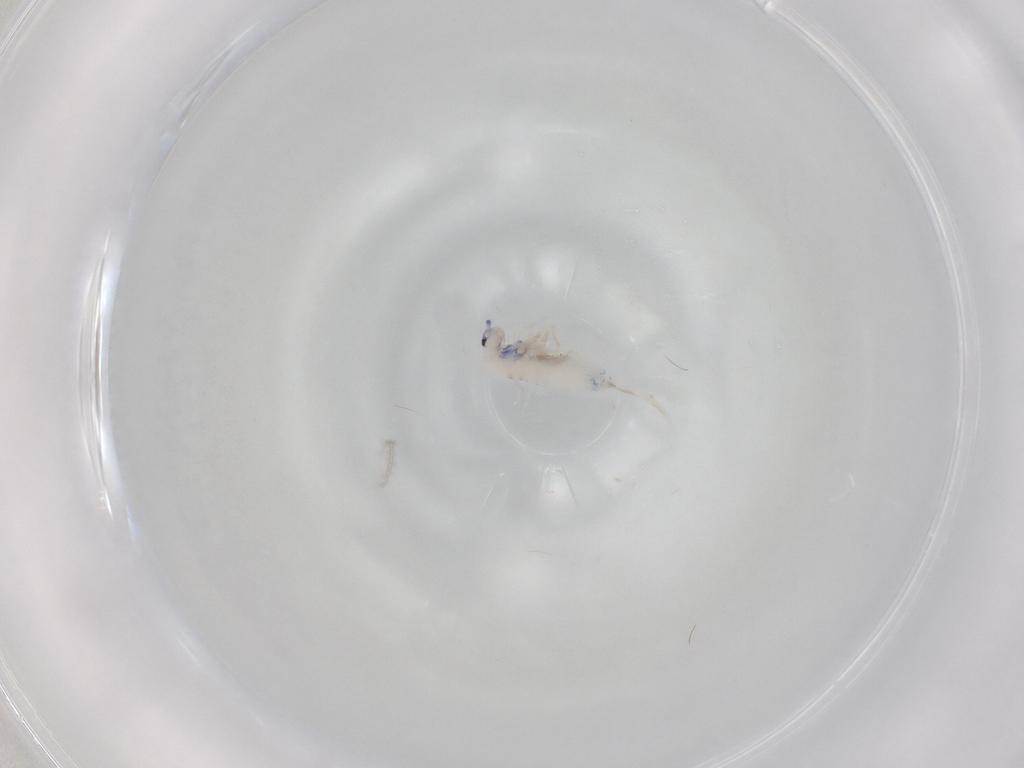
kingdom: Animalia
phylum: Arthropoda
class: Collembola
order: Entomobryomorpha
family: Entomobryidae
